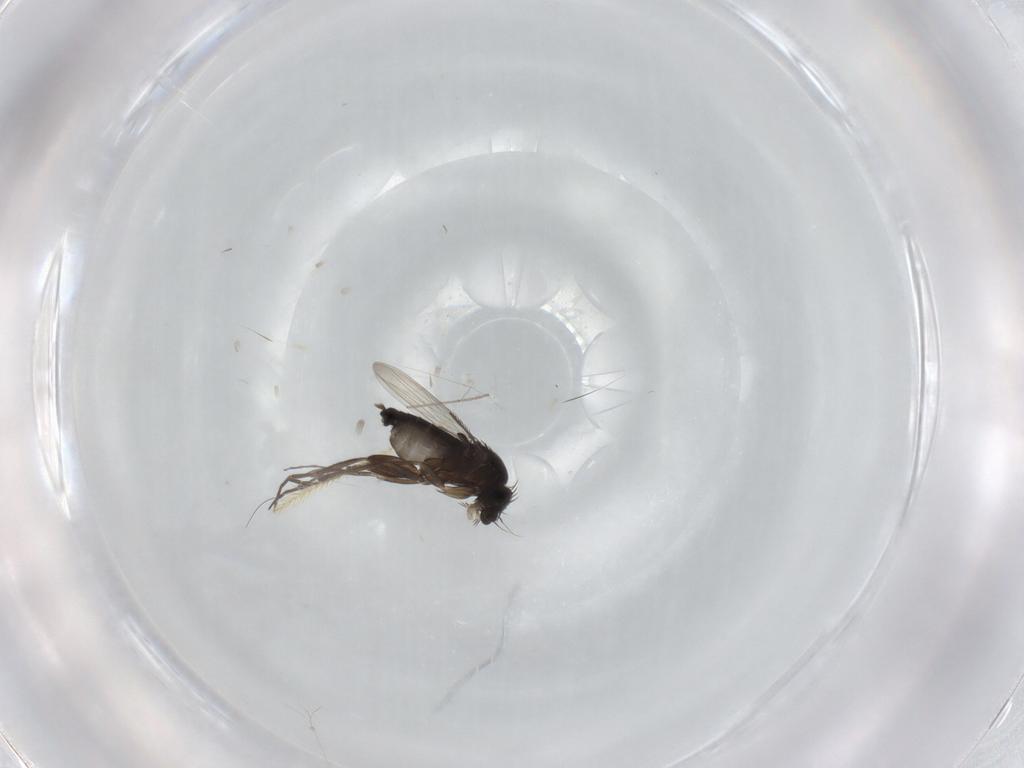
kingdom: Animalia
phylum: Arthropoda
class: Insecta
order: Diptera
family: Phoridae
